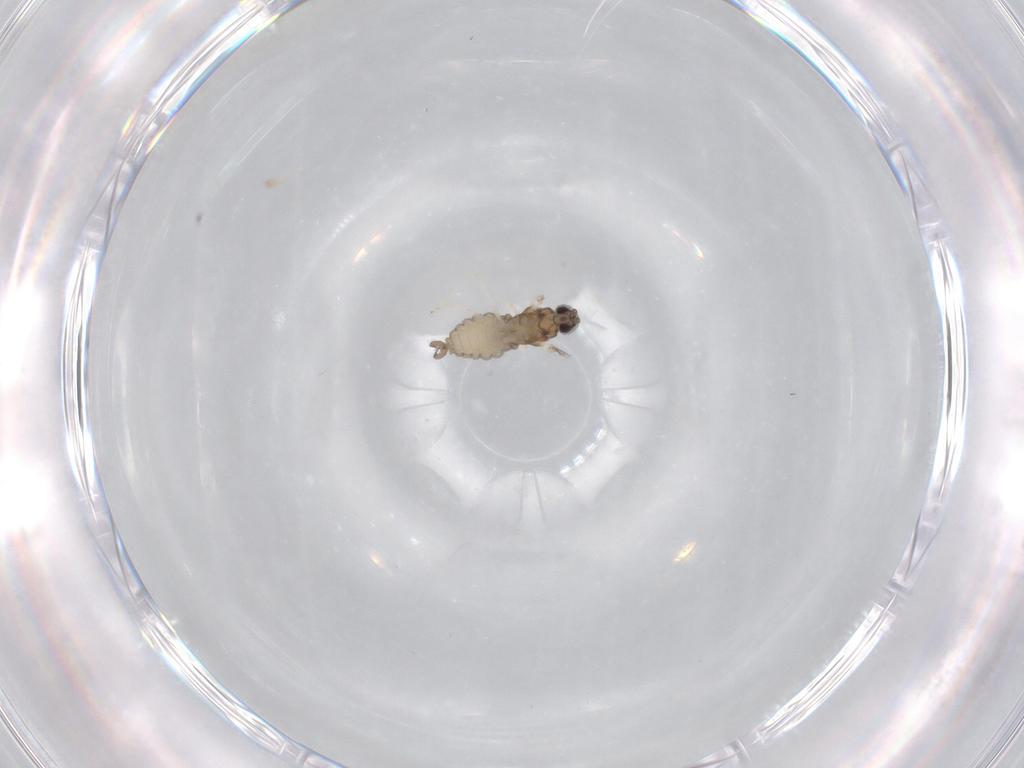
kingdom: Animalia
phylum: Arthropoda
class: Insecta
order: Diptera
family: Cecidomyiidae
